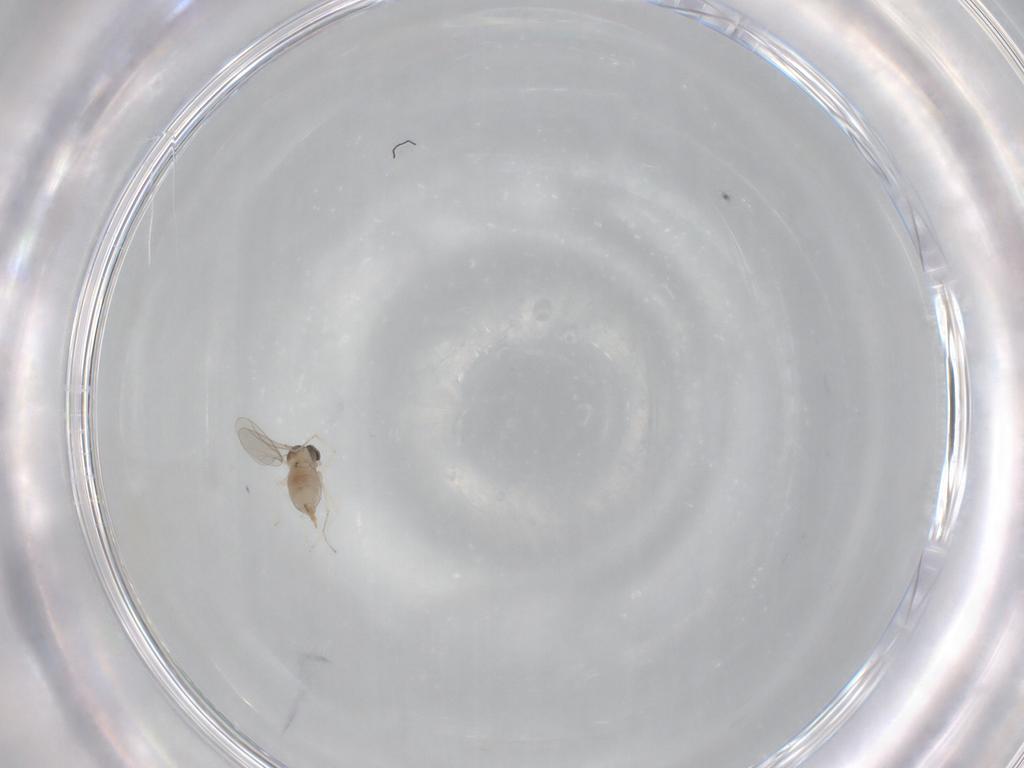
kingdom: Animalia
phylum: Arthropoda
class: Insecta
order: Diptera
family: Cecidomyiidae
